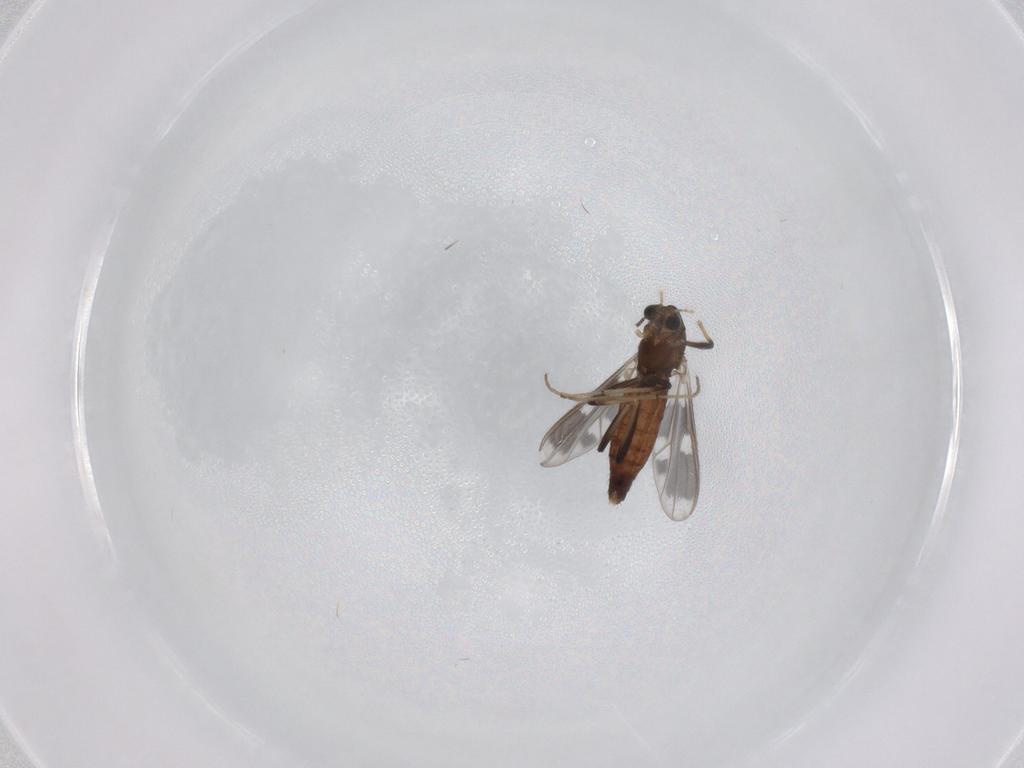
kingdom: Animalia
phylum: Arthropoda
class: Insecta
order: Diptera
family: Chironomidae
